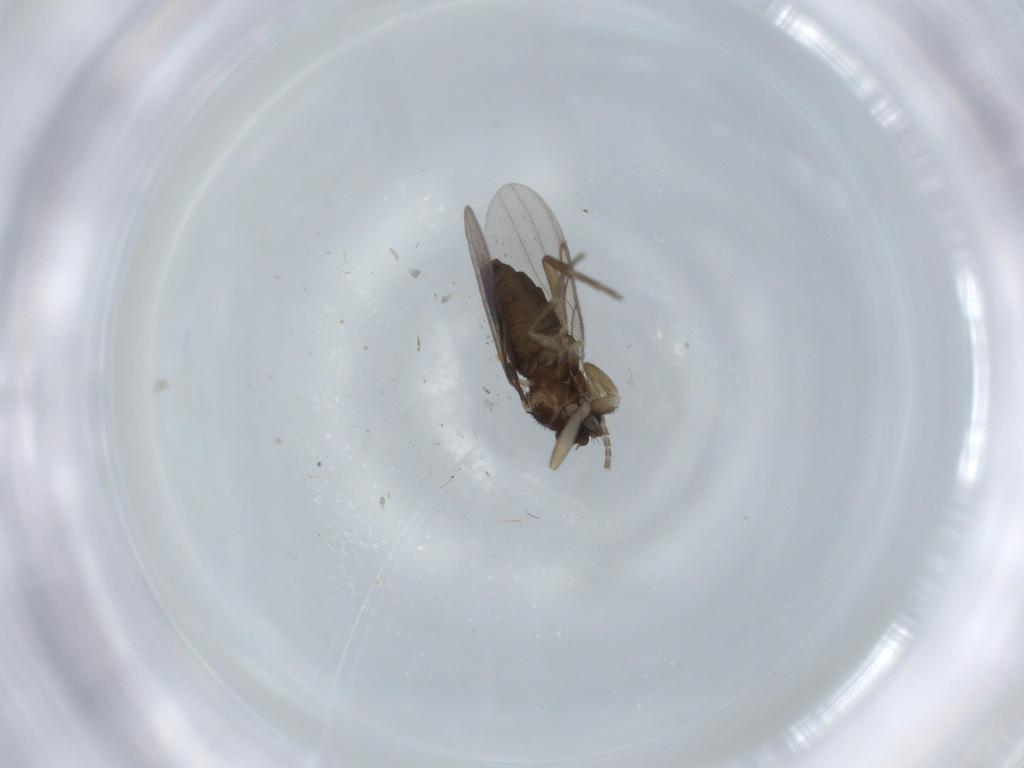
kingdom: Animalia
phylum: Arthropoda
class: Insecta
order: Diptera
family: Phoridae
